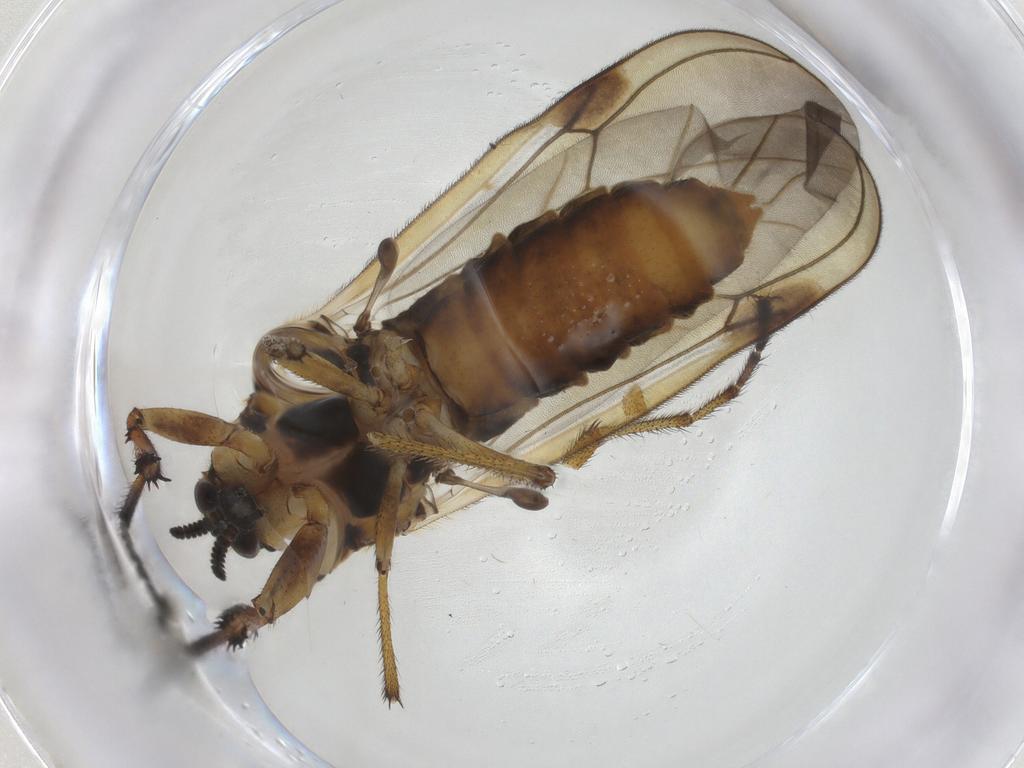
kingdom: Animalia
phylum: Arthropoda
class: Insecta
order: Diptera
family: Bibionidae
